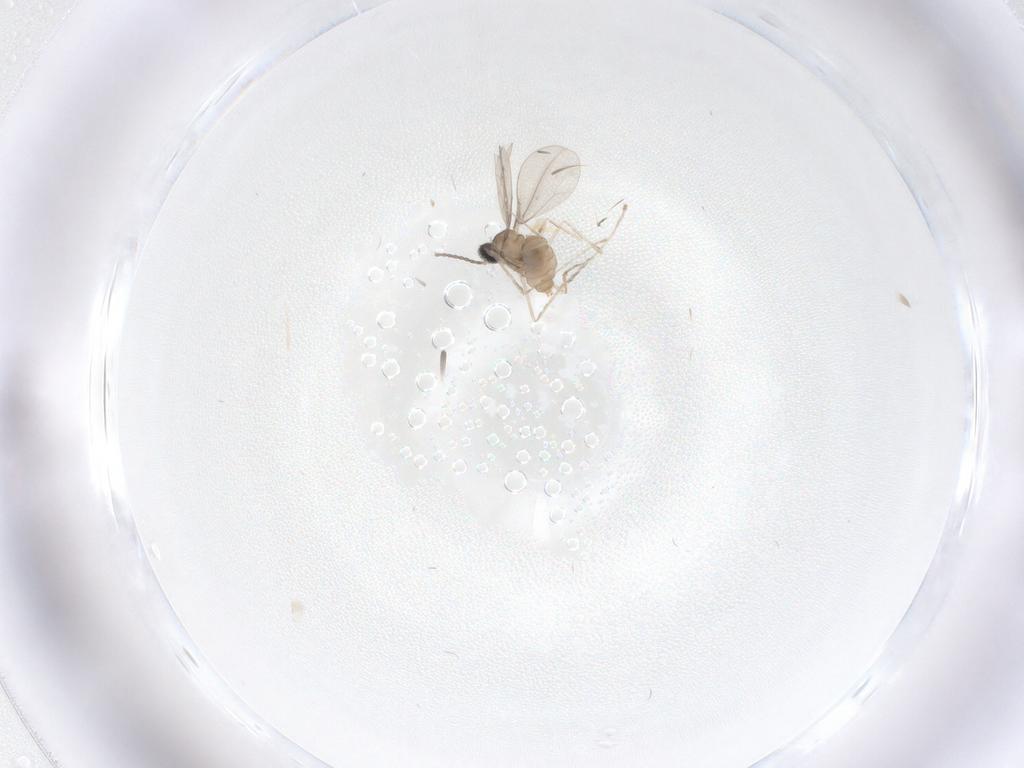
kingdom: Animalia
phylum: Arthropoda
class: Insecta
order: Diptera
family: Cecidomyiidae
